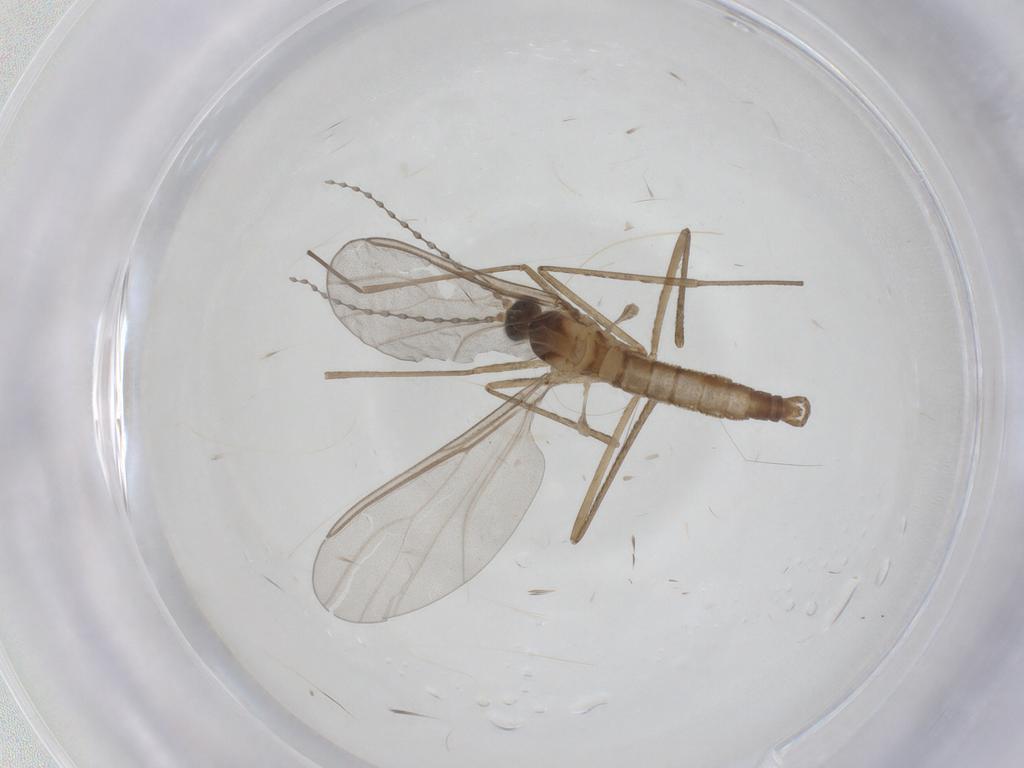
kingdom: Animalia
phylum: Arthropoda
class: Insecta
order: Diptera
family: Cecidomyiidae
